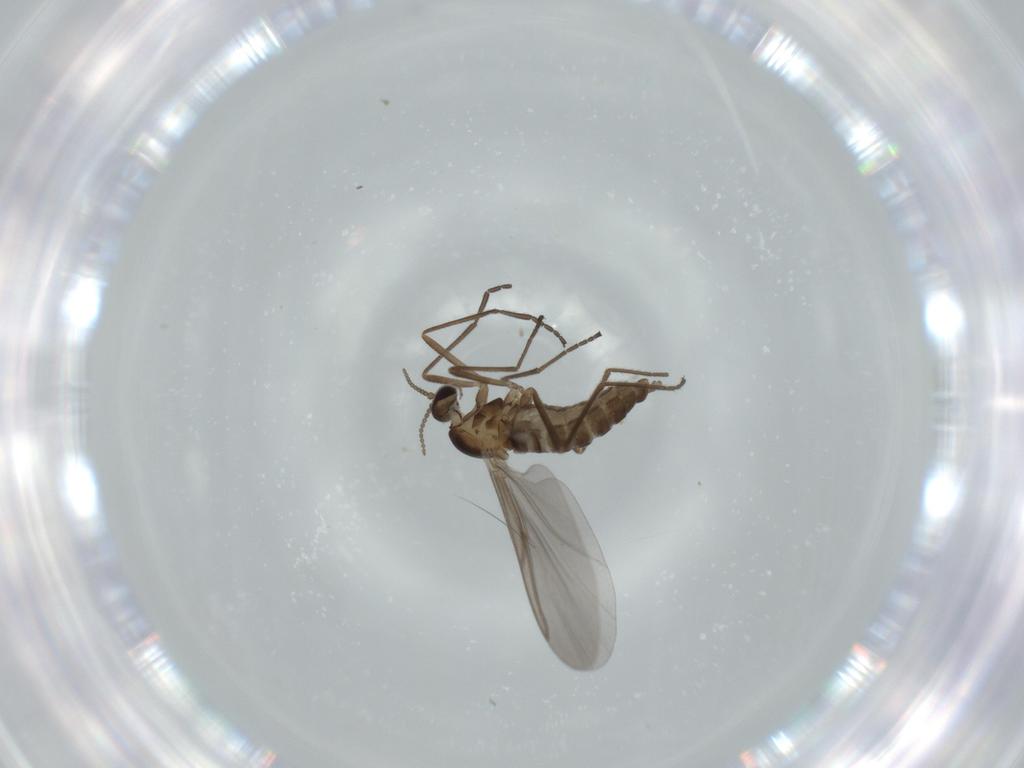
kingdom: Animalia
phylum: Arthropoda
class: Insecta
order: Diptera
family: Cecidomyiidae
